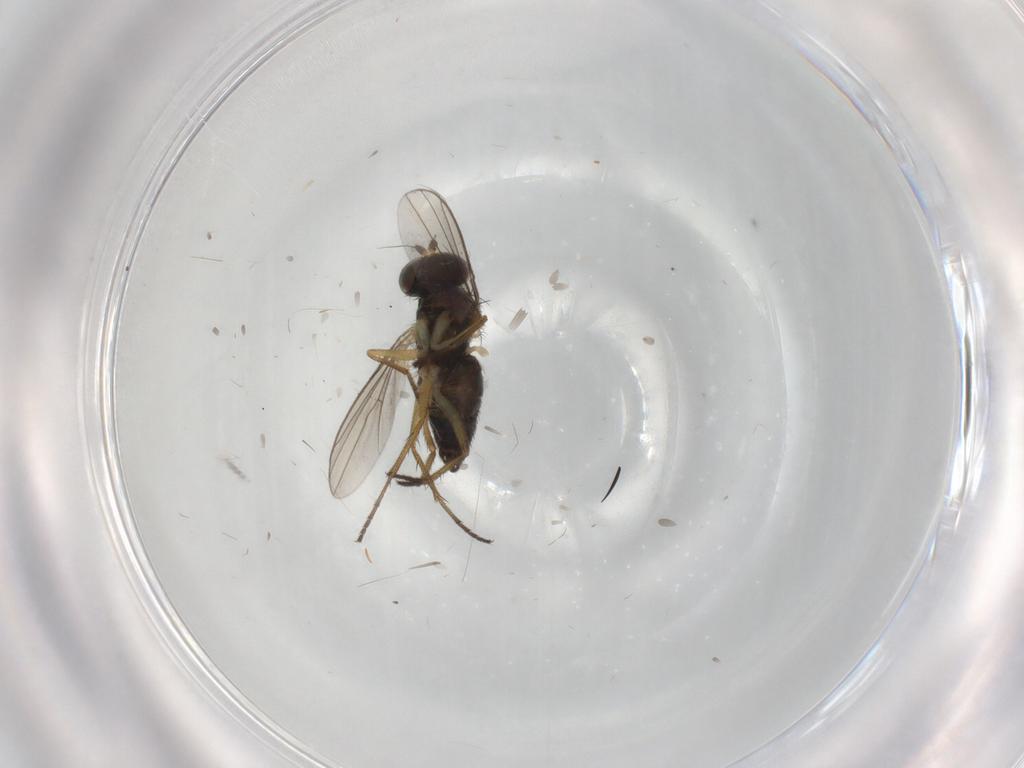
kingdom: Animalia
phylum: Arthropoda
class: Insecta
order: Diptera
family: Dolichopodidae
